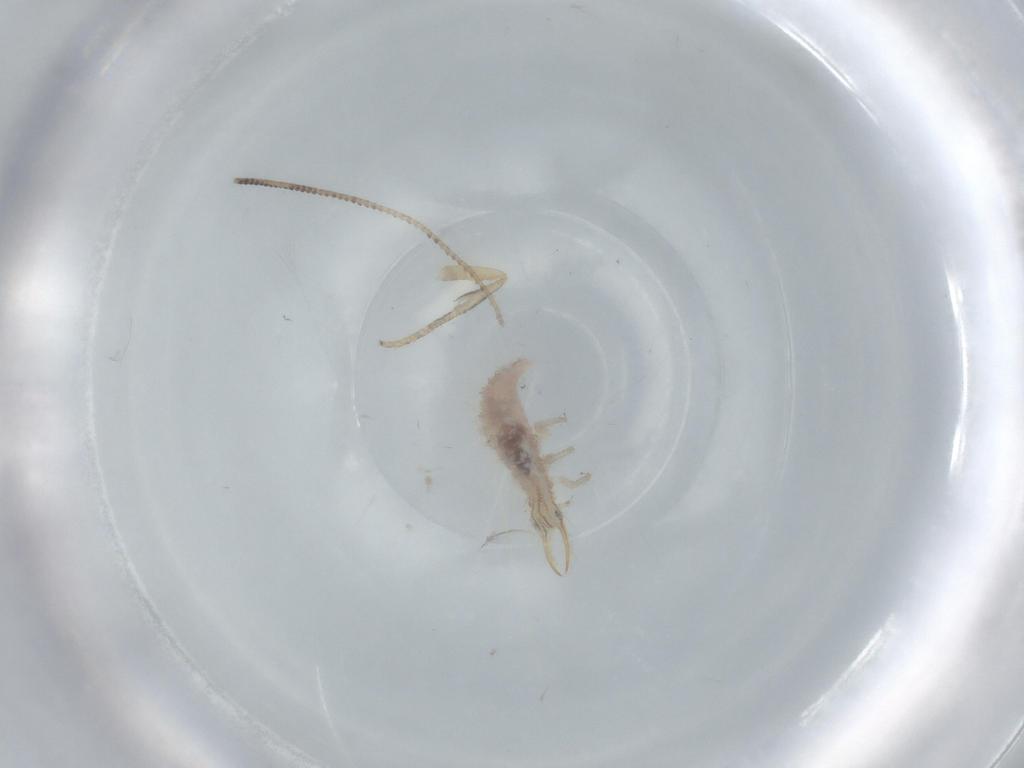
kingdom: Animalia
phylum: Arthropoda
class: Insecta
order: Neuroptera
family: Chrysopidae
